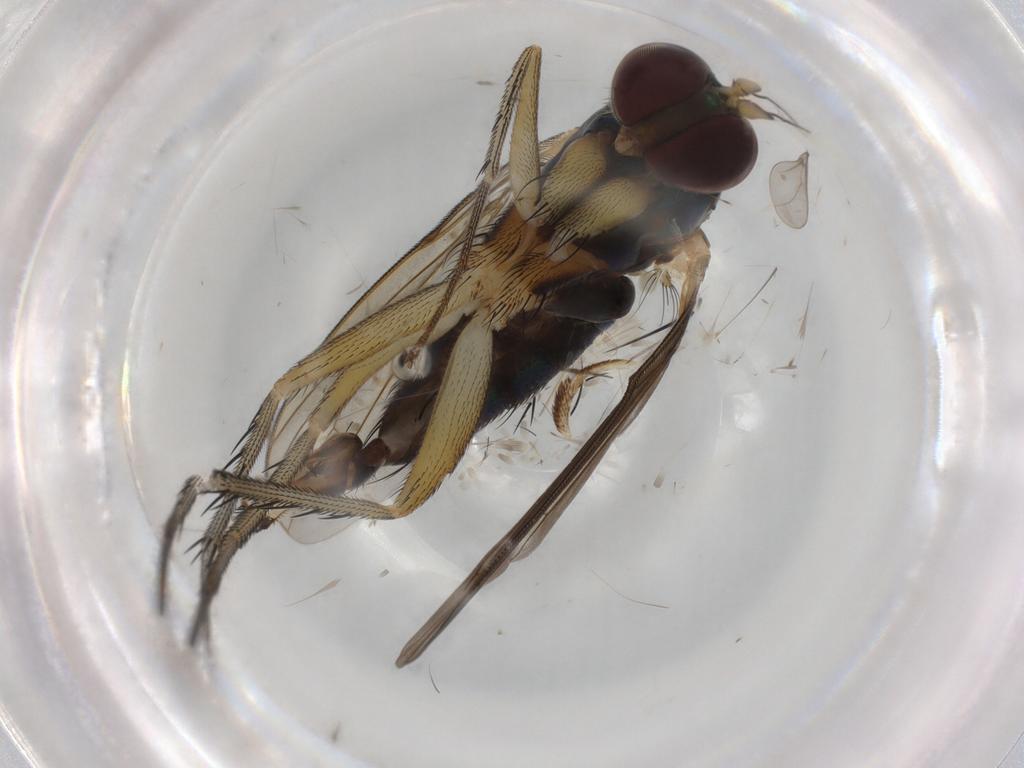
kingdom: Animalia
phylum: Arthropoda
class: Insecta
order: Diptera
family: Dolichopodidae
